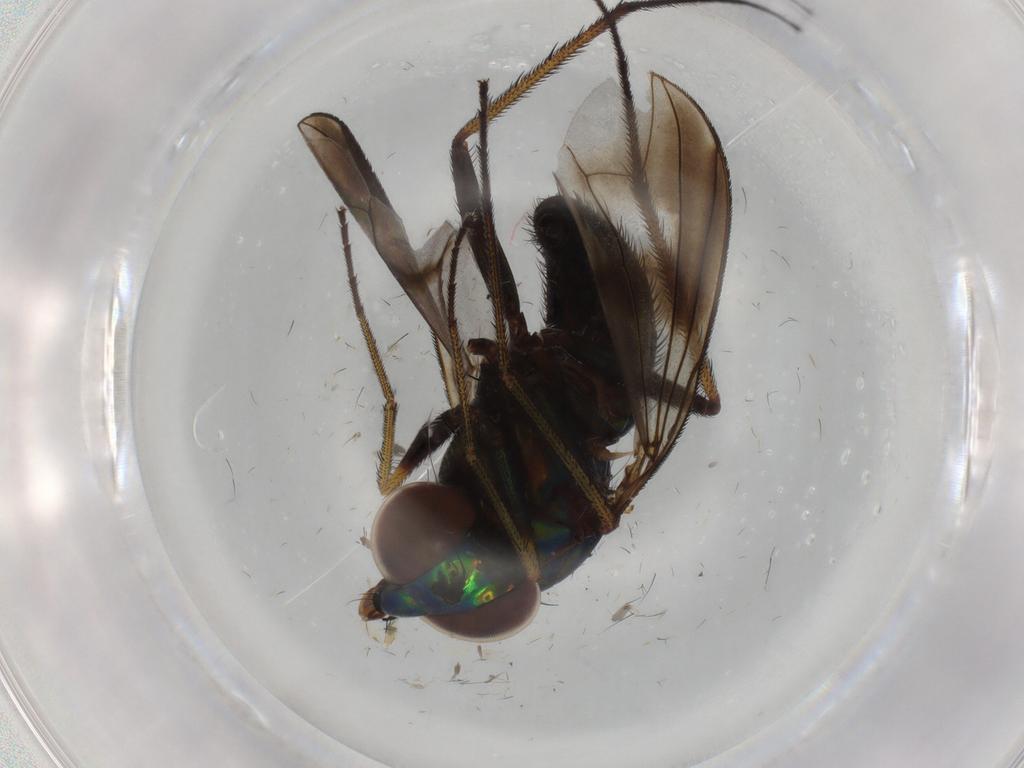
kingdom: Animalia
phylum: Arthropoda
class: Insecta
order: Diptera
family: Dolichopodidae
